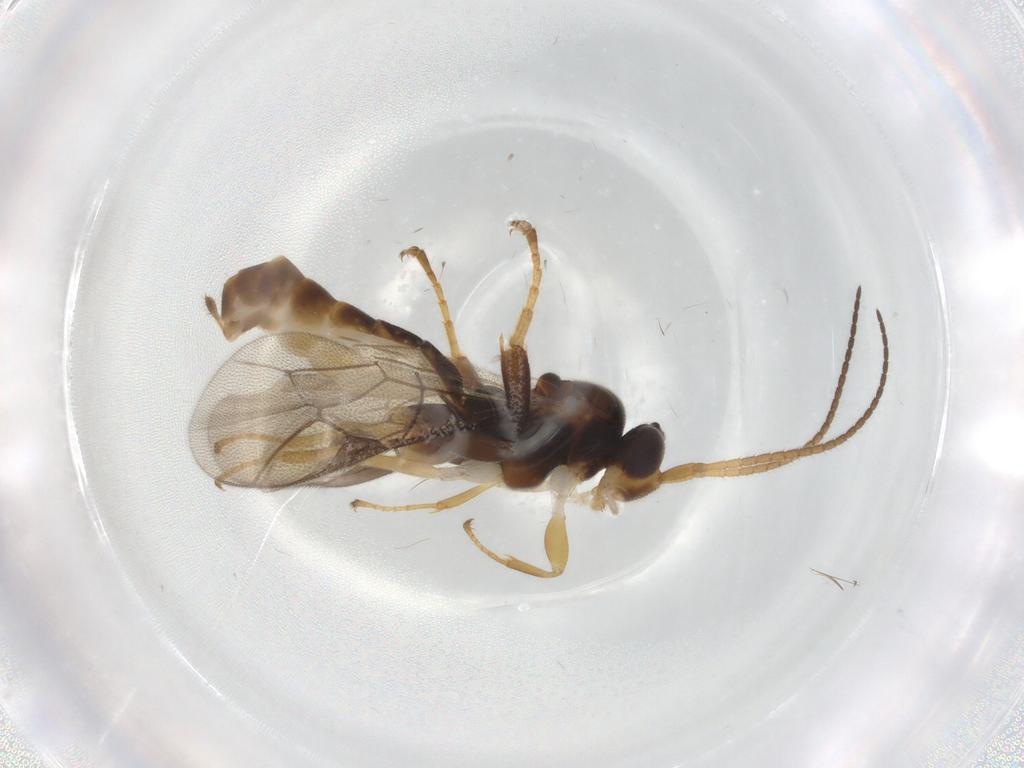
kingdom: Animalia
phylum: Arthropoda
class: Insecta
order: Hymenoptera
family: Ichneumonidae
